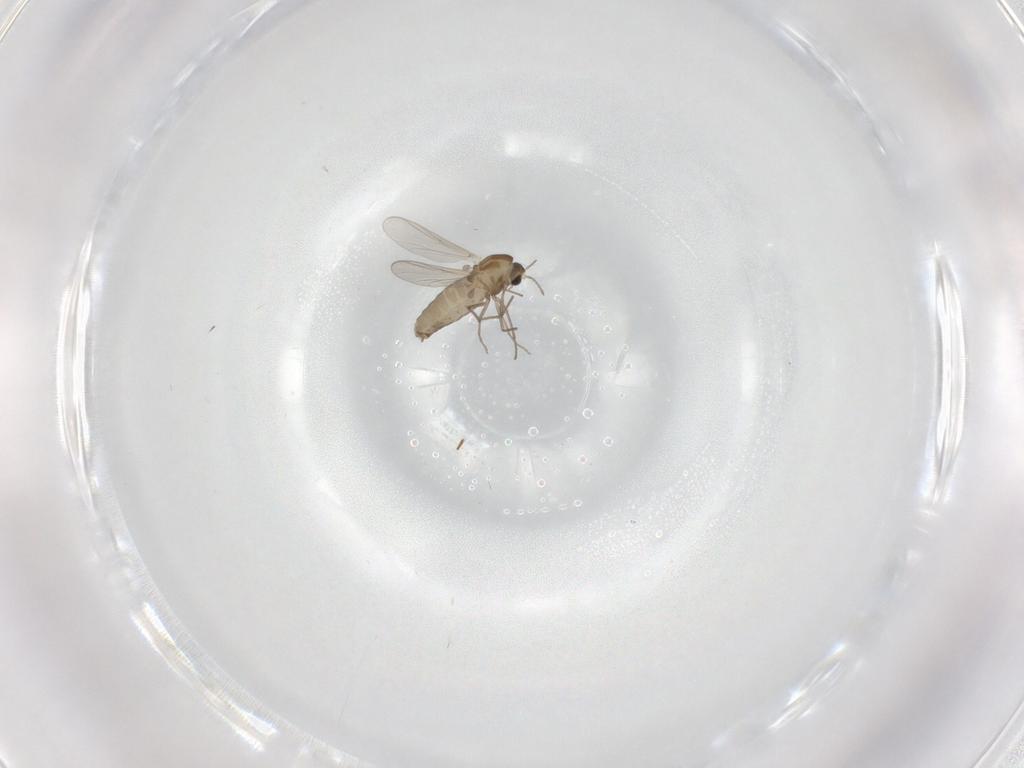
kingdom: Animalia
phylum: Arthropoda
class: Insecta
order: Diptera
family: Chironomidae
